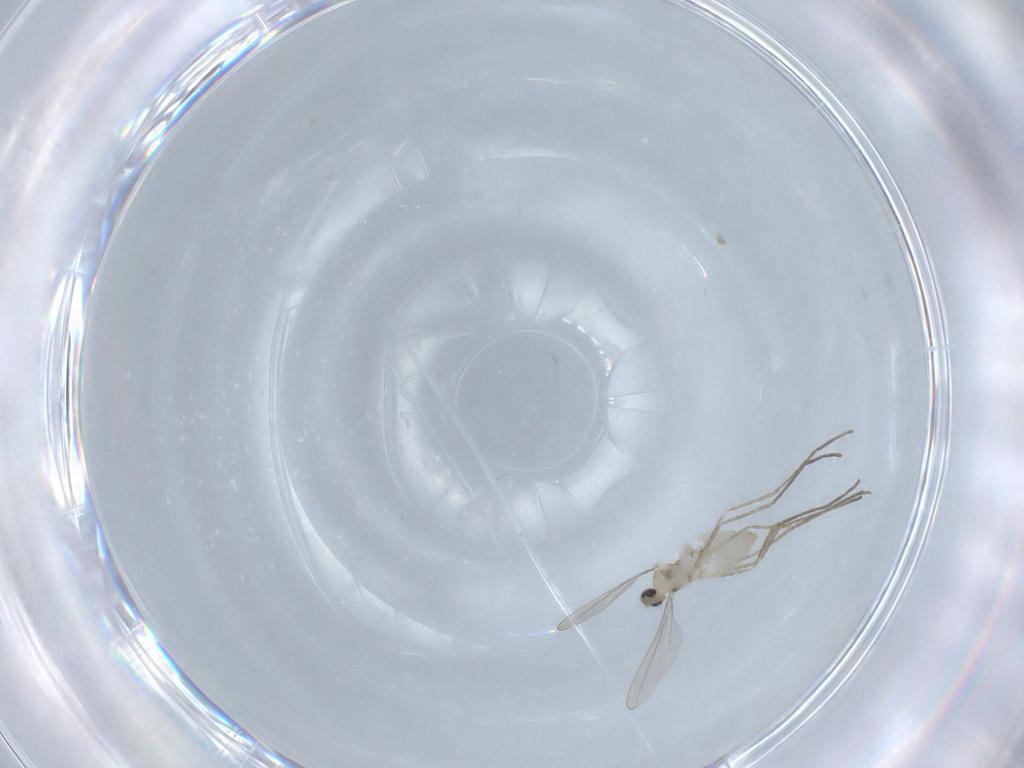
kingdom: Animalia
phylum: Arthropoda
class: Insecta
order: Diptera
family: Cecidomyiidae
